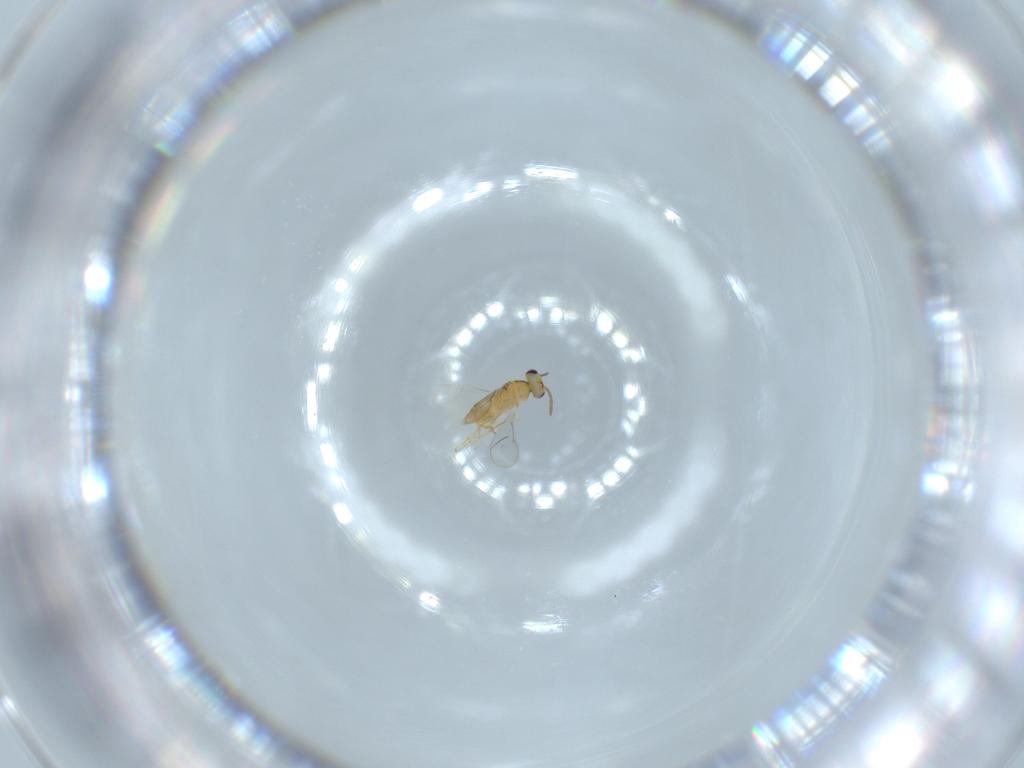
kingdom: Animalia
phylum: Arthropoda
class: Insecta
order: Hymenoptera
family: Aphelinidae
